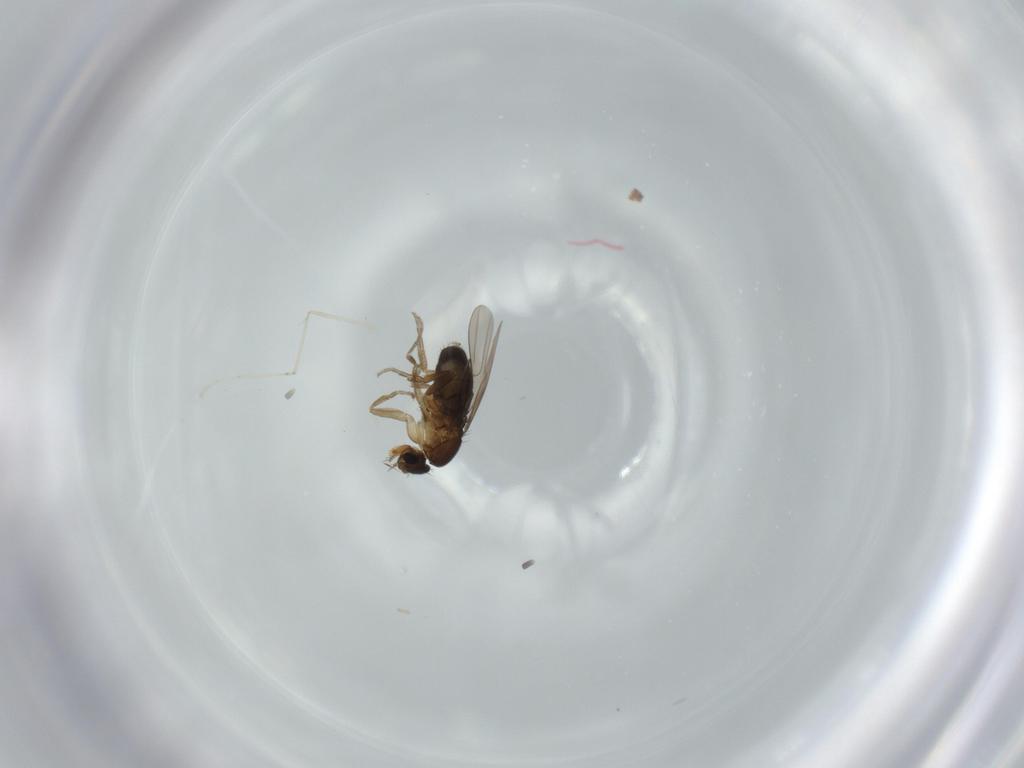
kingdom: Animalia
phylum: Arthropoda
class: Insecta
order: Diptera
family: Phoridae
